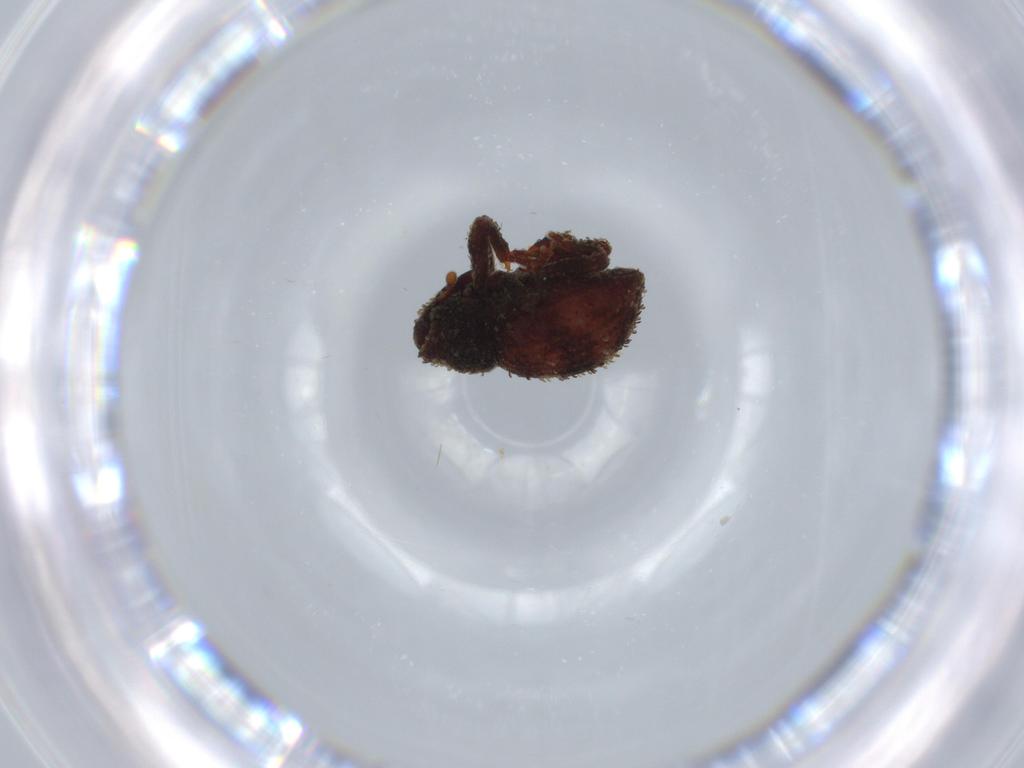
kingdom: Animalia
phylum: Arthropoda
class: Insecta
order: Coleoptera
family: Curculionidae
